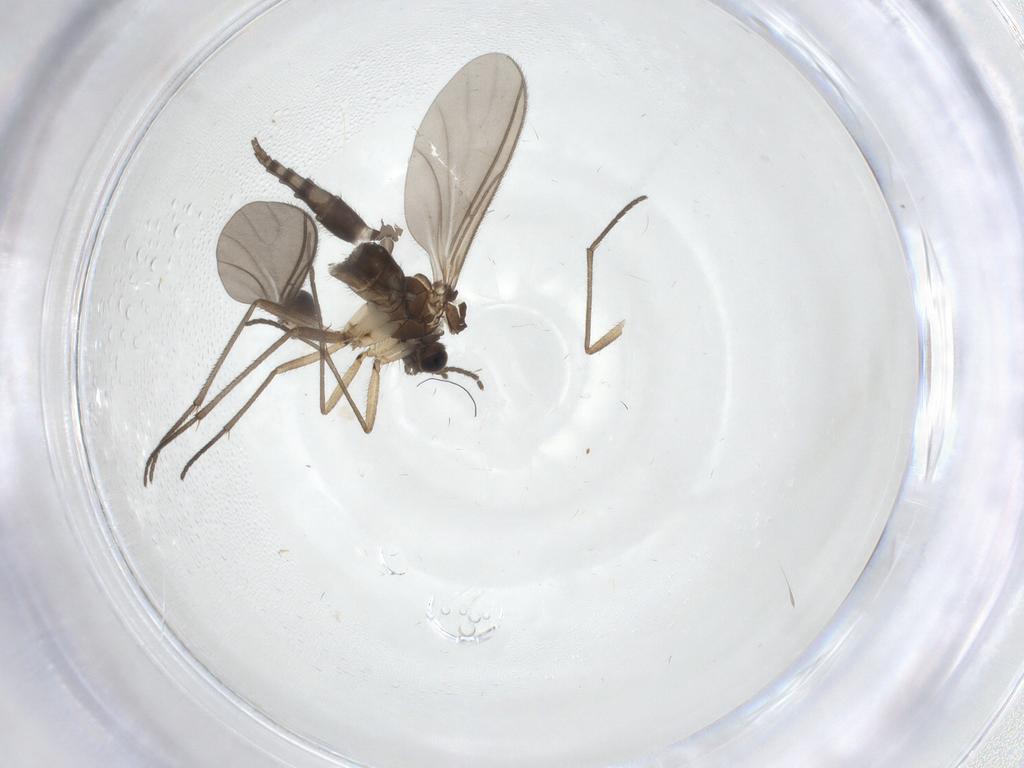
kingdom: Animalia
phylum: Arthropoda
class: Insecta
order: Diptera
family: Sciaridae
